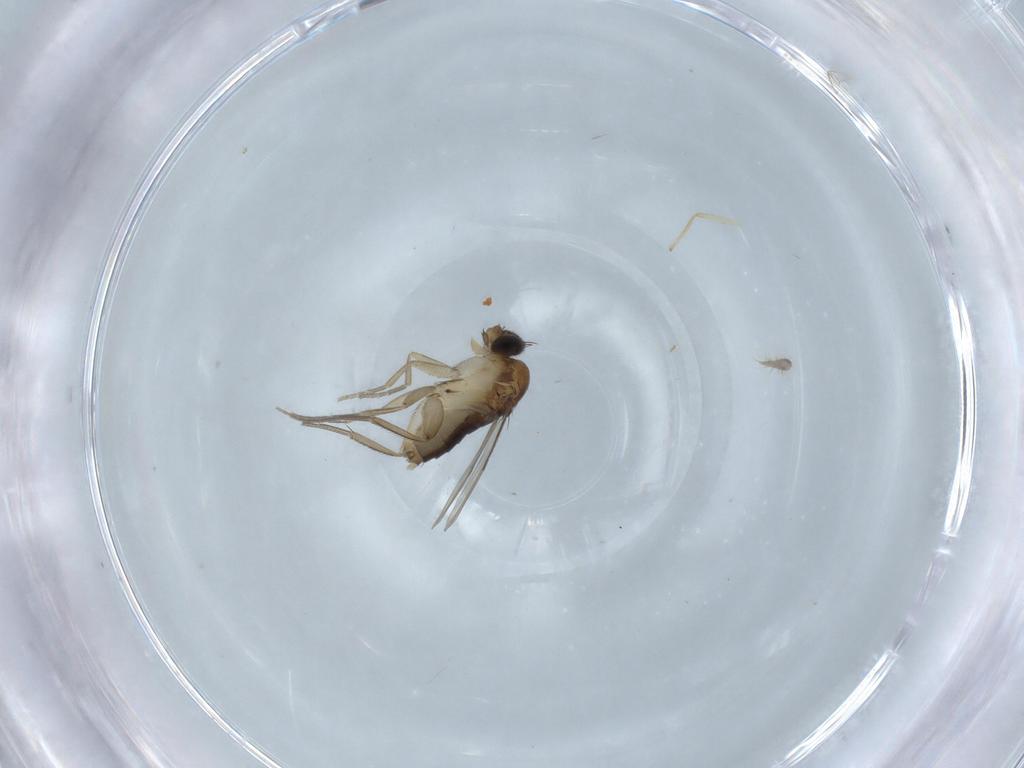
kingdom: Animalia
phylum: Arthropoda
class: Insecta
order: Diptera
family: Phoridae
